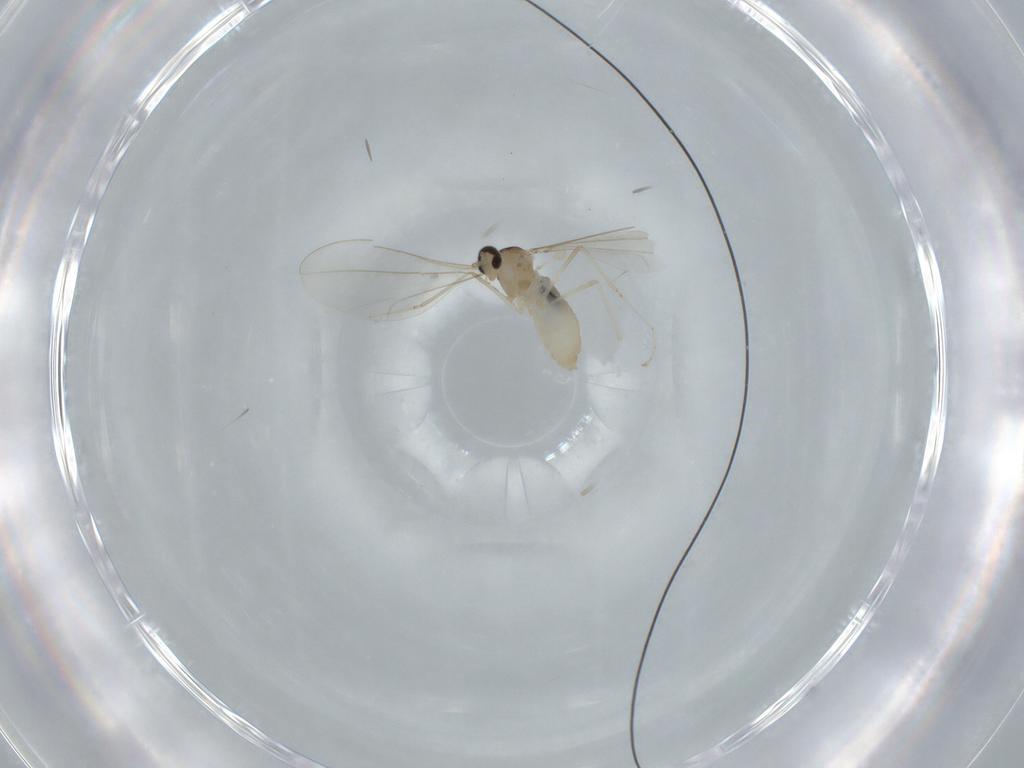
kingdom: Animalia
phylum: Arthropoda
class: Insecta
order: Diptera
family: Cecidomyiidae
